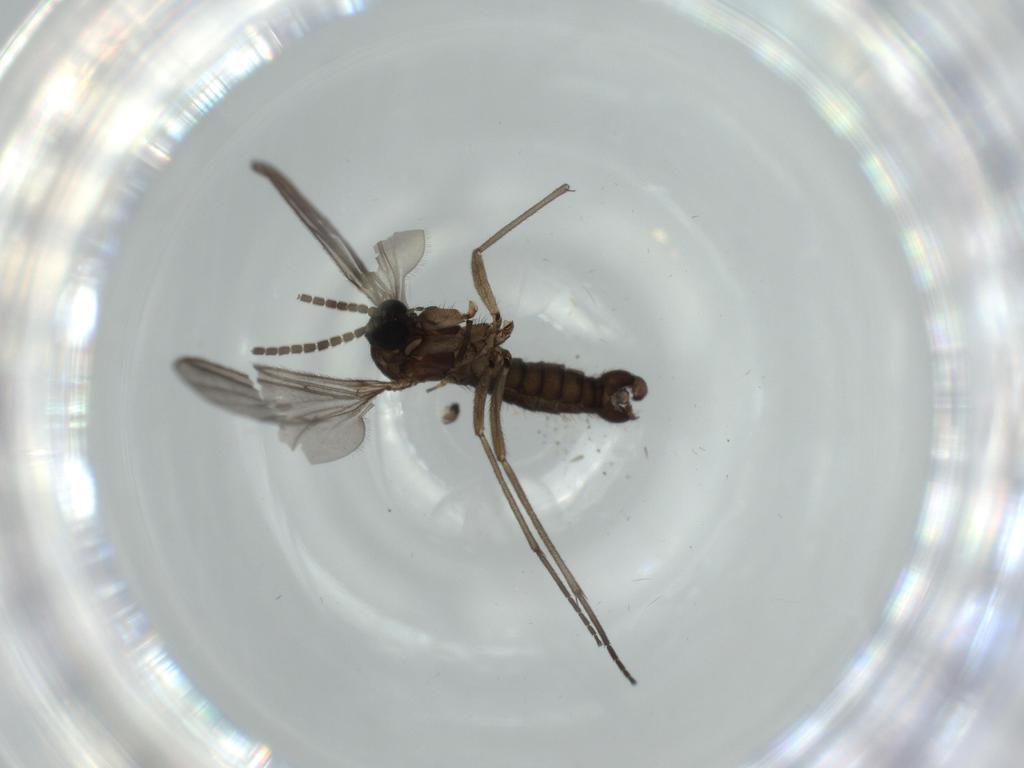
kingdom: Animalia
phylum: Arthropoda
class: Insecta
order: Diptera
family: Sciaridae
